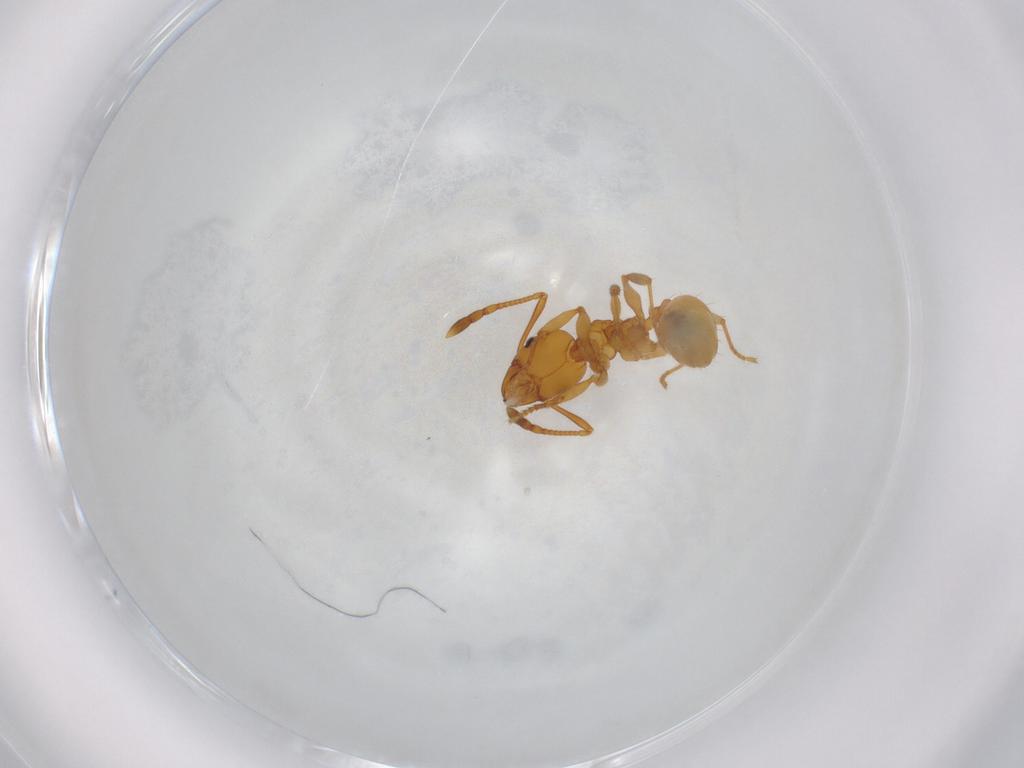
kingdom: Animalia
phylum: Arthropoda
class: Insecta
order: Hymenoptera
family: Formicidae
